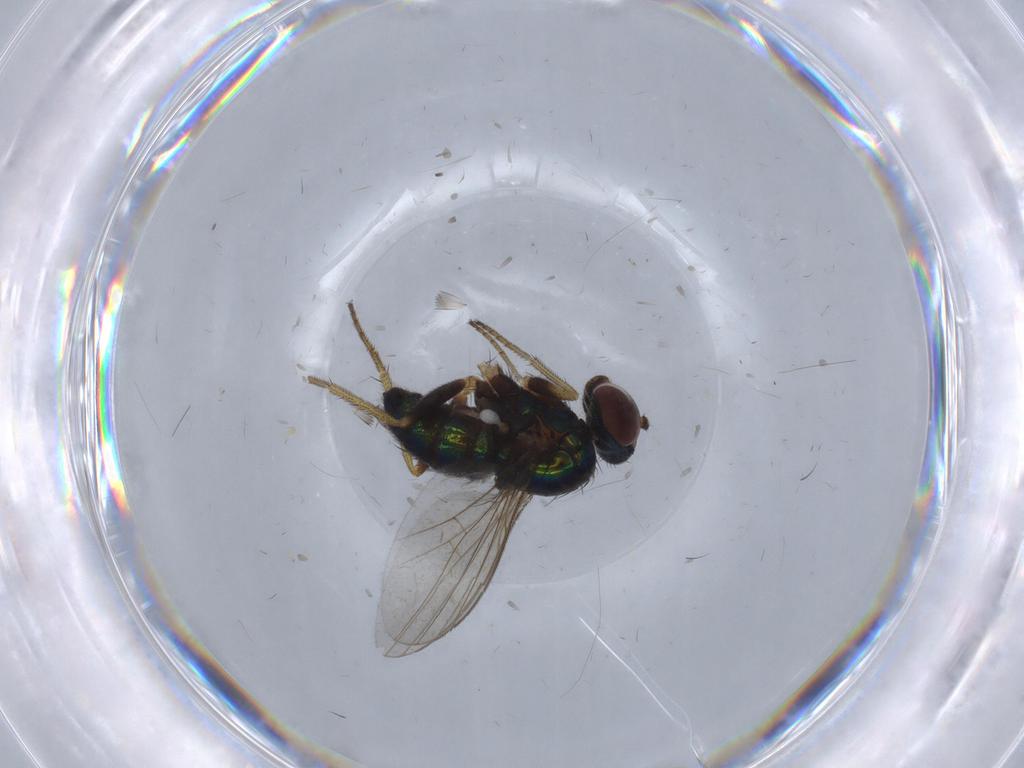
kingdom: Animalia
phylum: Arthropoda
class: Insecta
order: Diptera
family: Dolichopodidae
